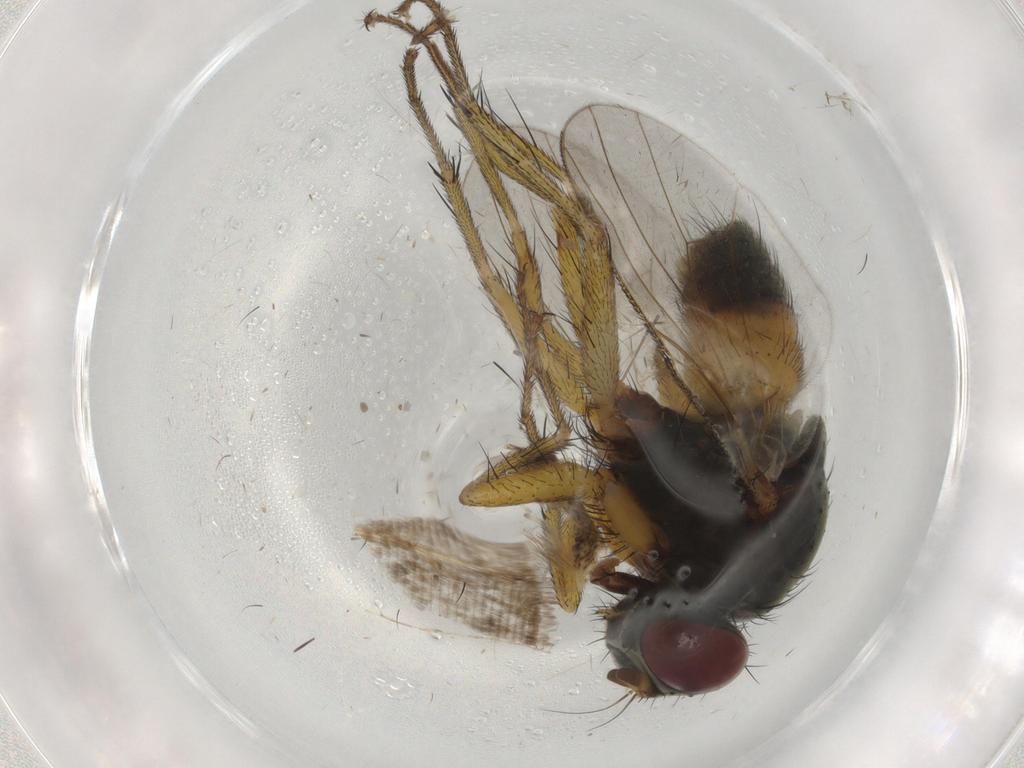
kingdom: Animalia
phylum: Arthropoda
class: Insecta
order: Diptera
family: Muscidae
